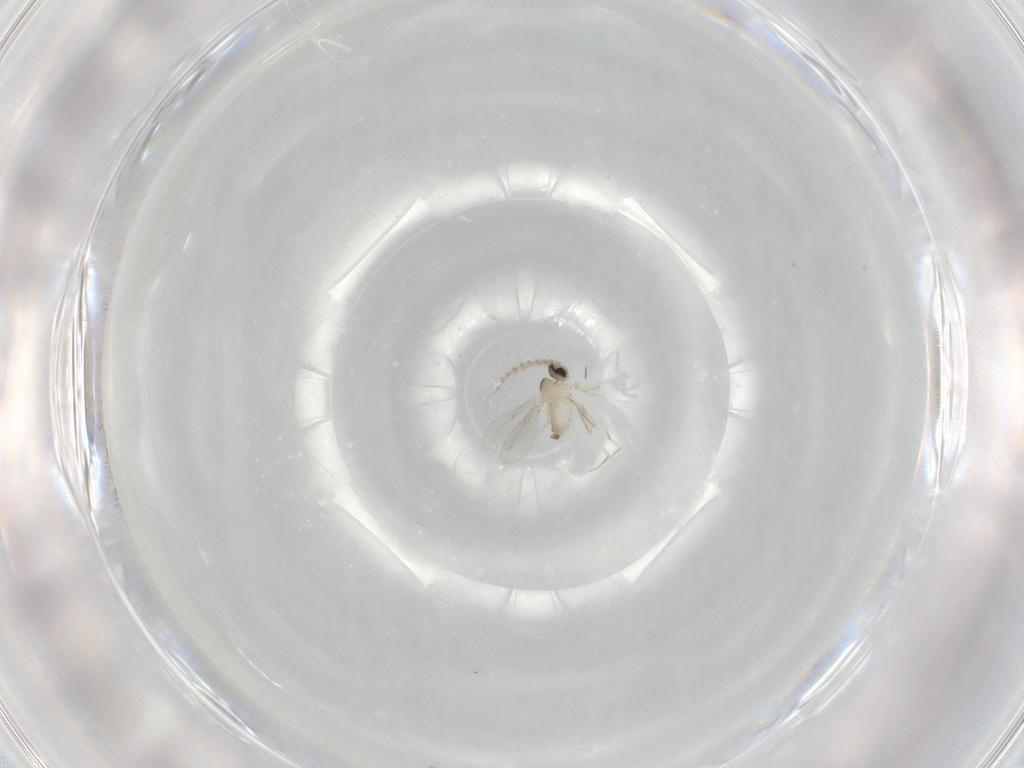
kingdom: Animalia
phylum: Arthropoda
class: Insecta
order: Diptera
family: Cecidomyiidae
